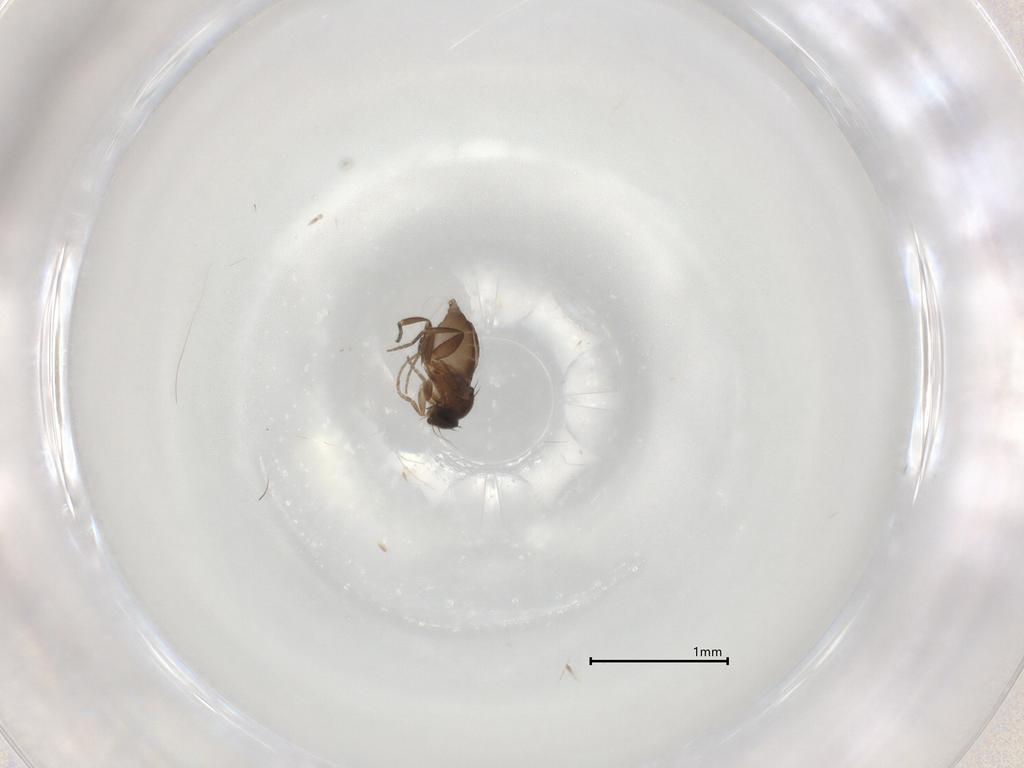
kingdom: Animalia
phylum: Arthropoda
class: Insecta
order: Diptera
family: Phoridae
